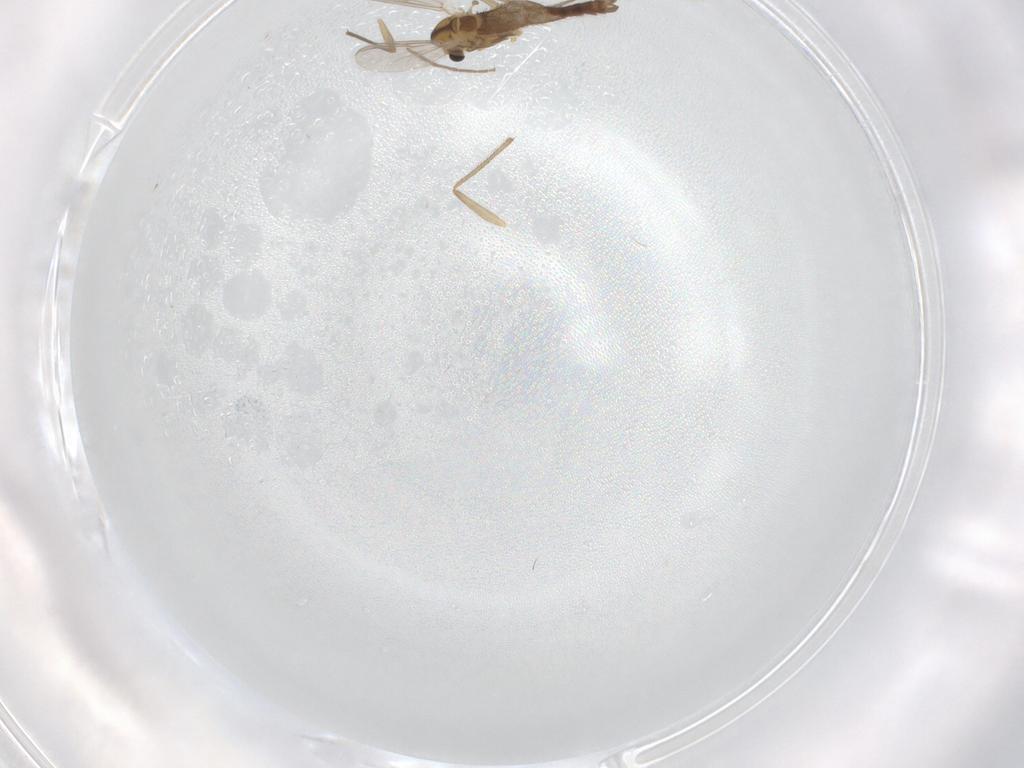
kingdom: Animalia
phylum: Arthropoda
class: Insecta
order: Diptera
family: Chironomidae
